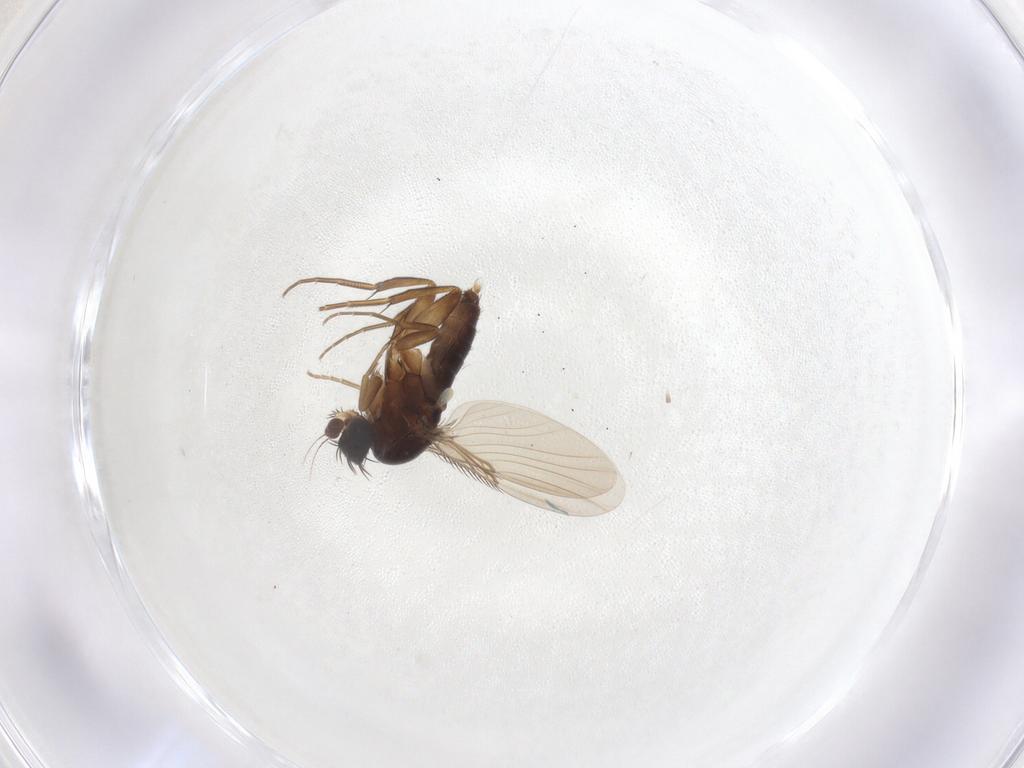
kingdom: Animalia
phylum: Arthropoda
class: Insecta
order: Diptera
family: Phoridae
